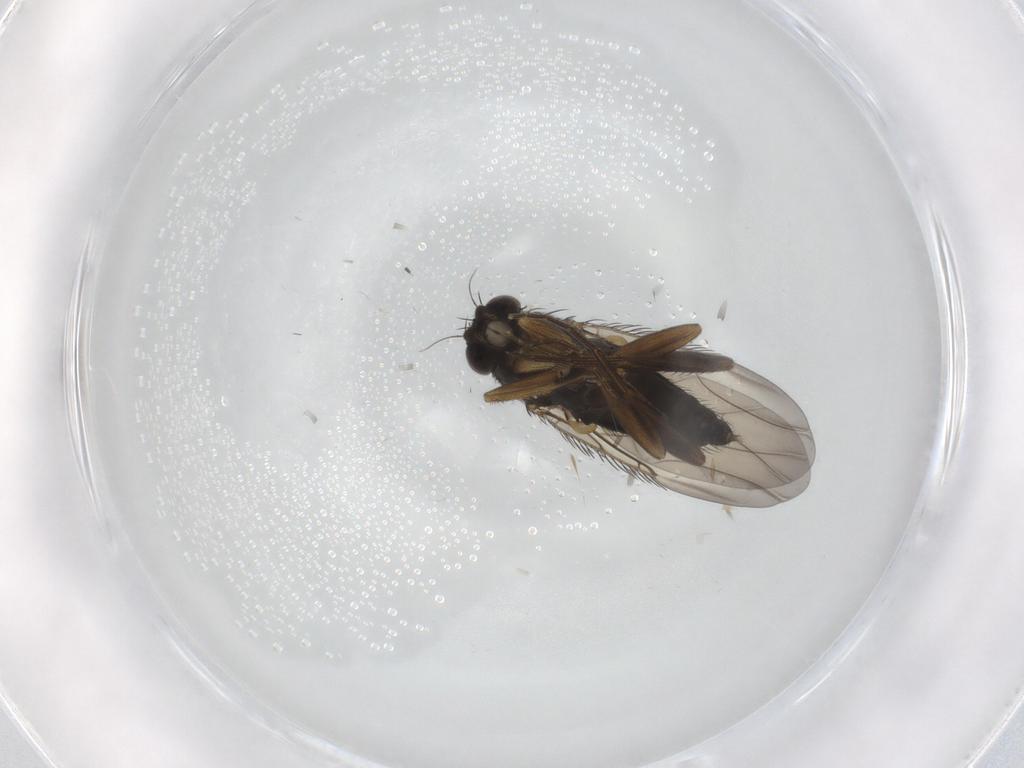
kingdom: Animalia
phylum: Arthropoda
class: Insecta
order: Diptera
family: Phoridae
